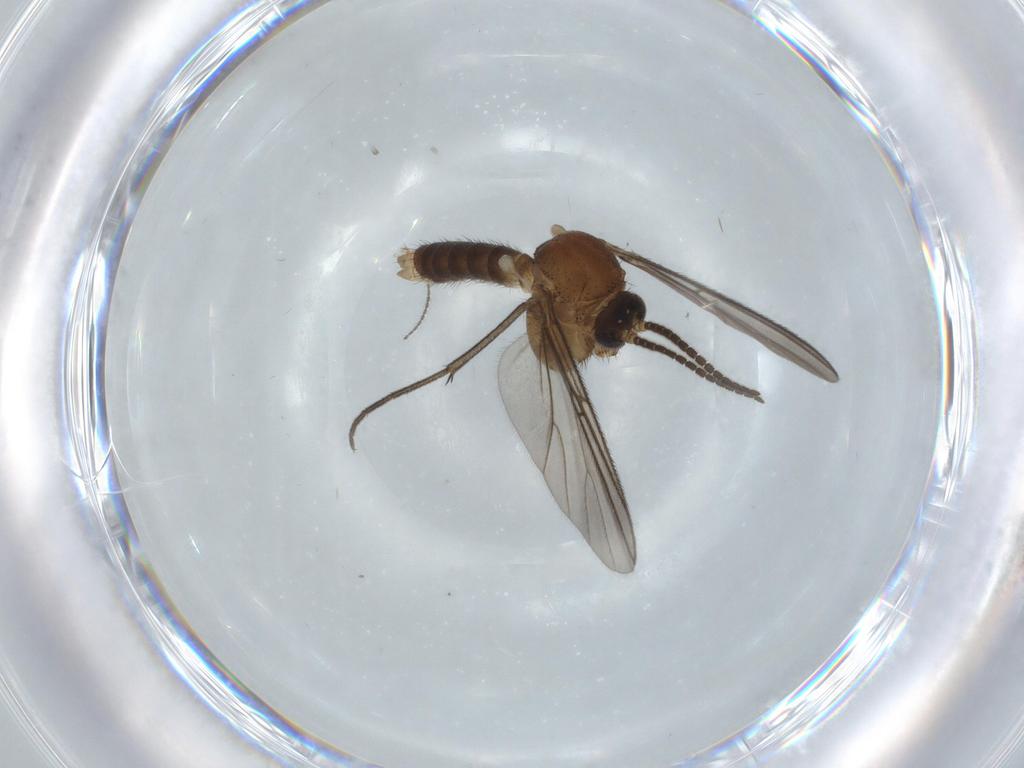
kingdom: Animalia
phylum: Arthropoda
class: Insecta
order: Diptera
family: Cecidomyiidae
